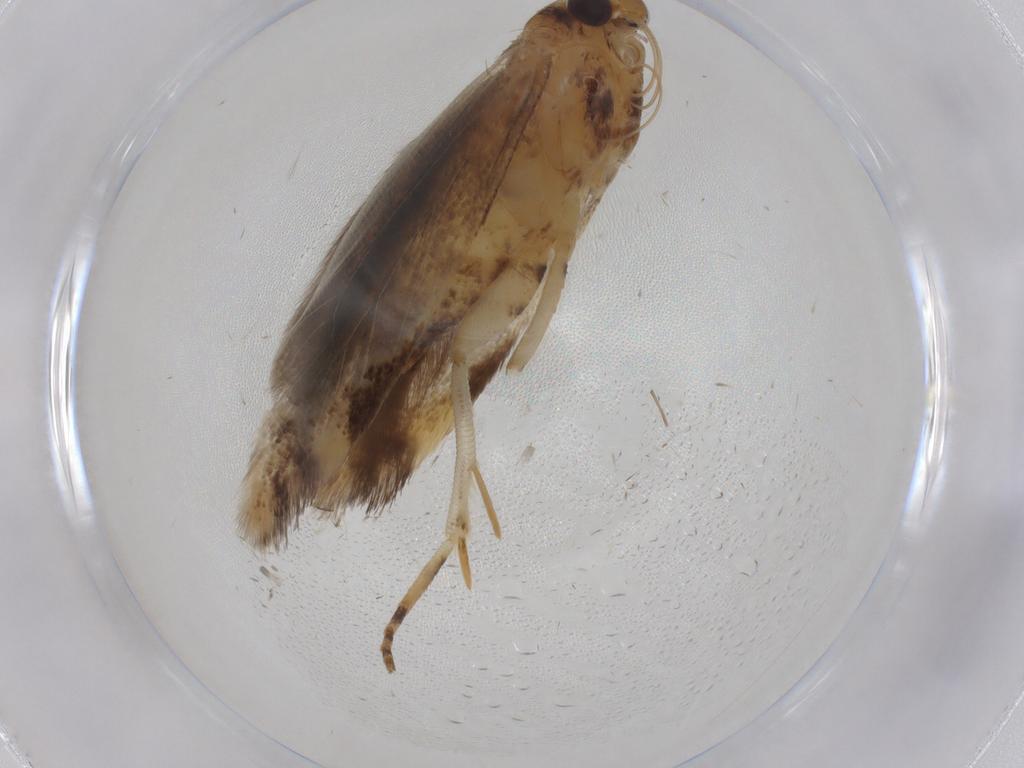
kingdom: Animalia
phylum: Arthropoda
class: Insecta
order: Lepidoptera
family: Gelechiidae
